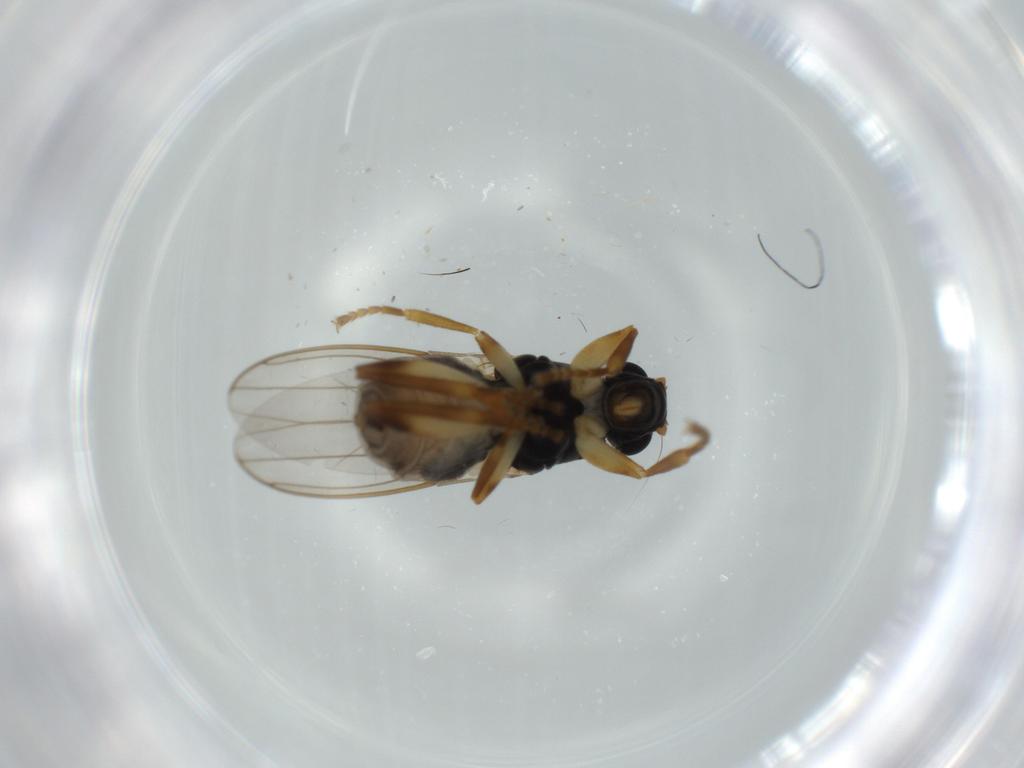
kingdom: Animalia
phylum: Arthropoda
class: Insecta
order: Diptera
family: Sphaeroceridae
